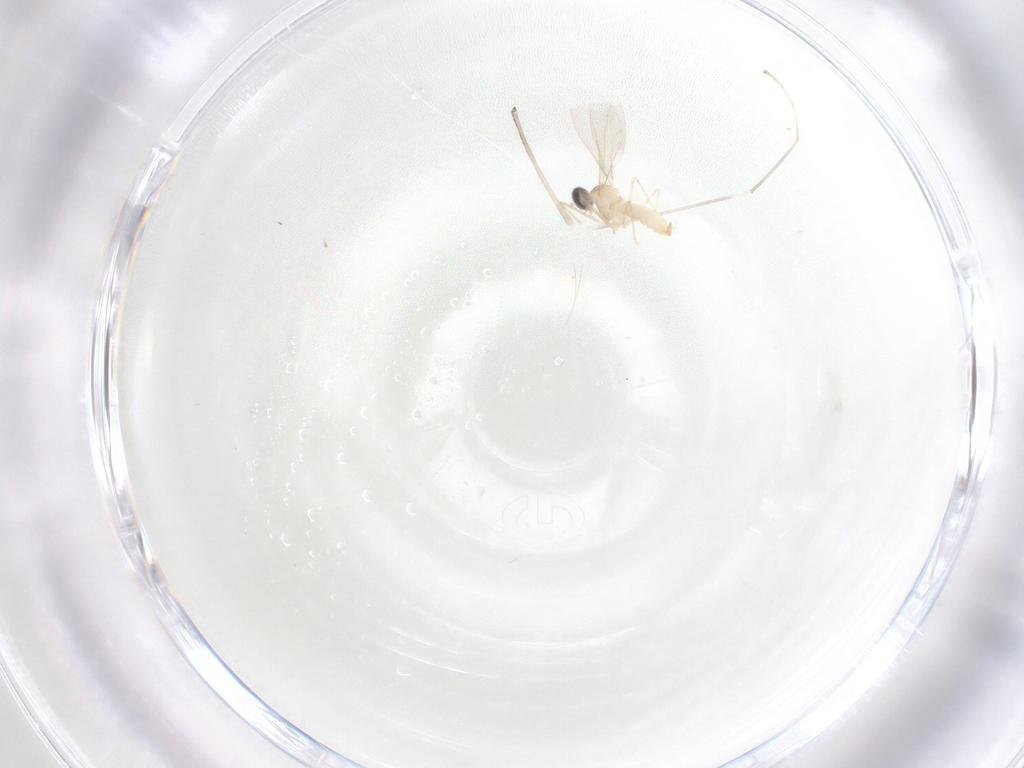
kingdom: Animalia
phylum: Arthropoda
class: Insecta
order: Diptera
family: Cecidomyiidae
